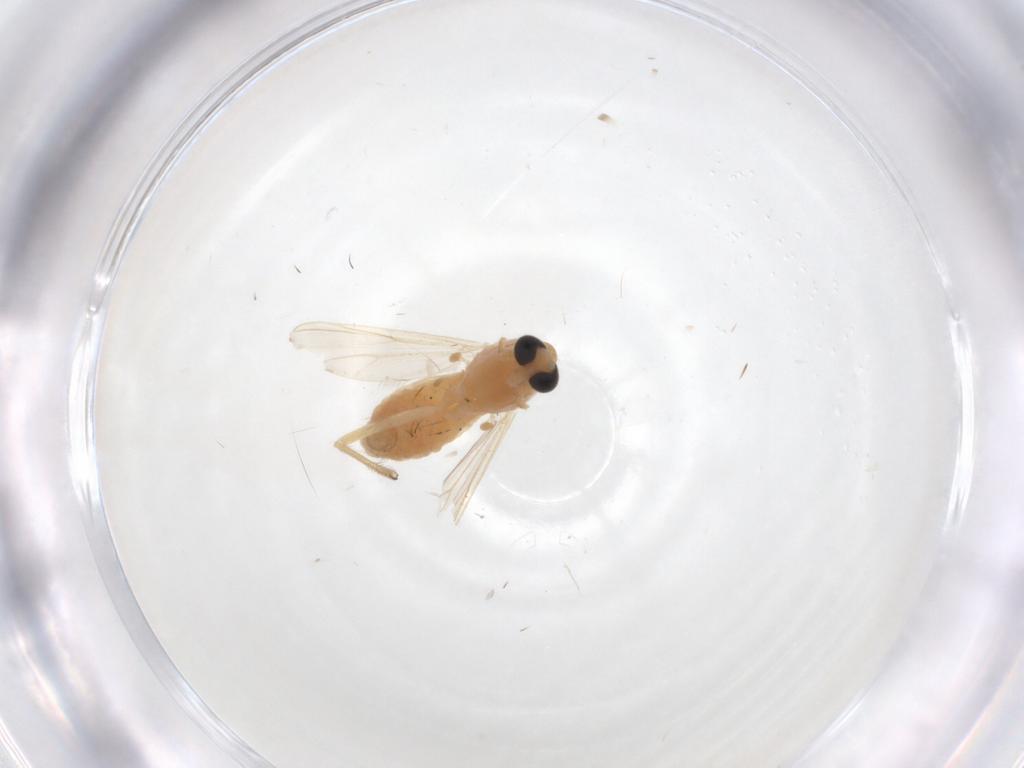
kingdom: Animalia
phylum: Arthropoda
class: Insecta
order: Diptera
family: Chironomidae
